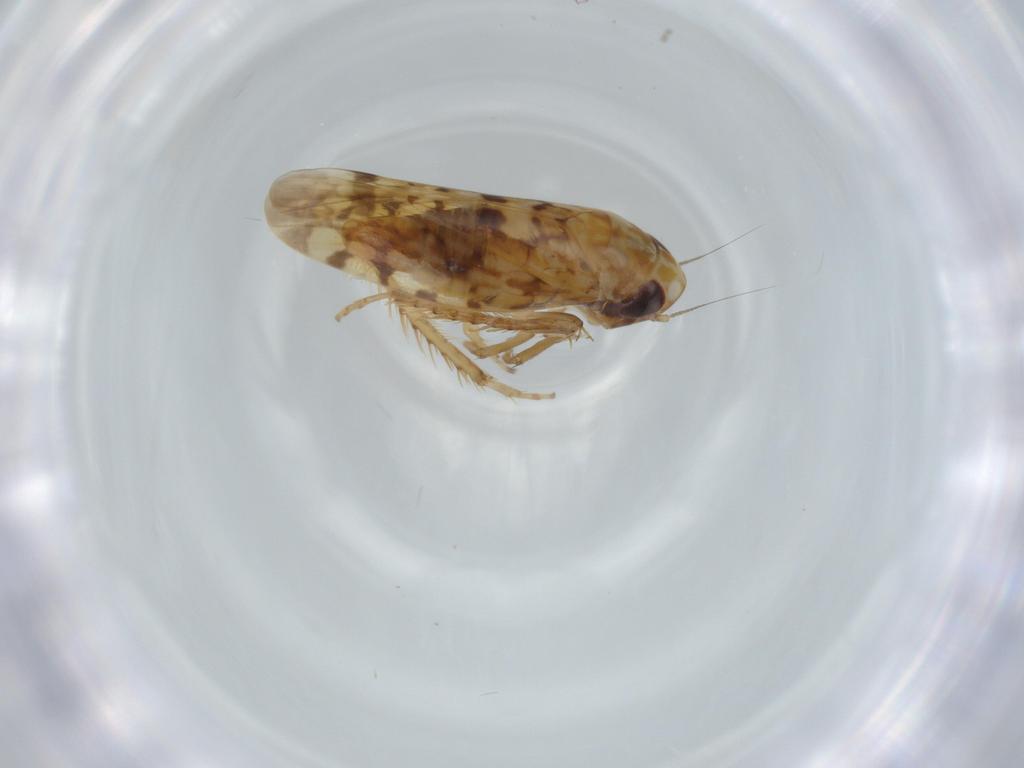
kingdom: Animalia
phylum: Arthropoda
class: Insecta
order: Hemiptera
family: Cicadellidae
